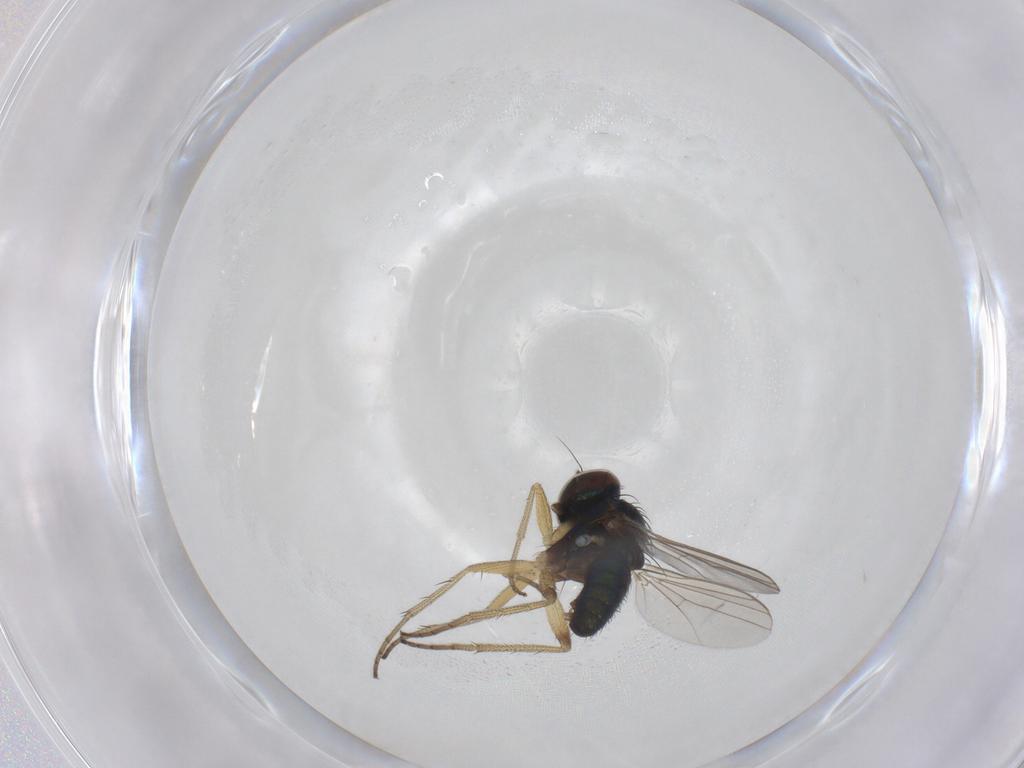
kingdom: Animalia
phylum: Arthropoda
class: Insecta
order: Diptera
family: Dolichopodidae
